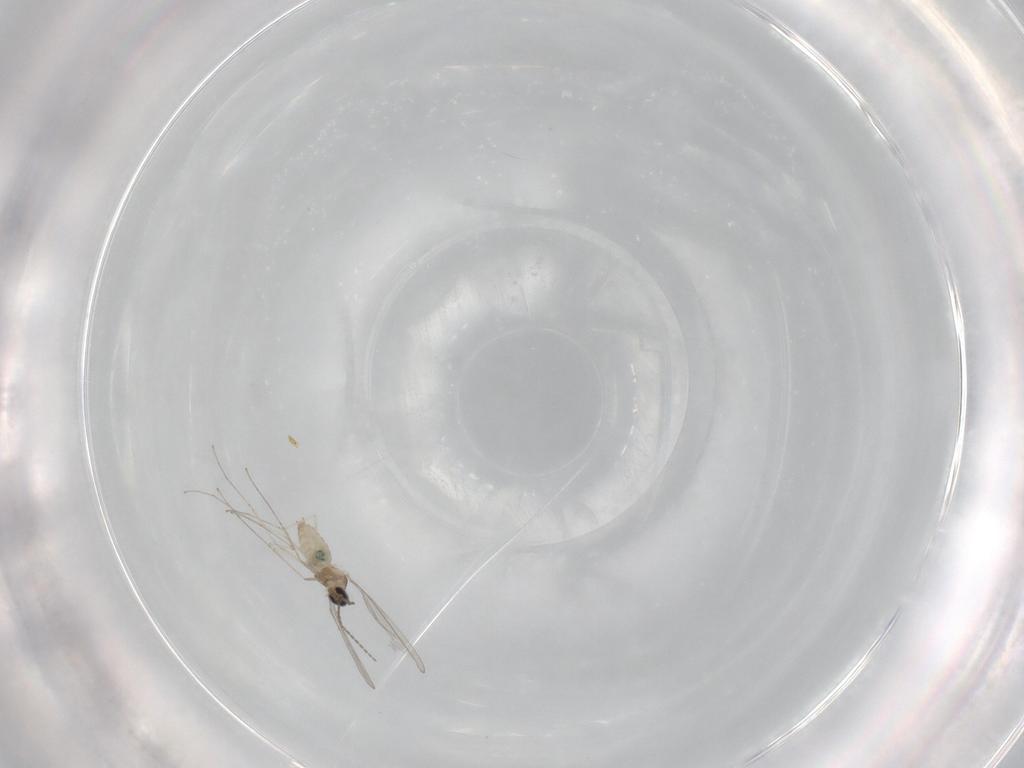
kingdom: Animalia
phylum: Arthropoda
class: Insecta
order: Diptera
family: Cecidomyiidae
